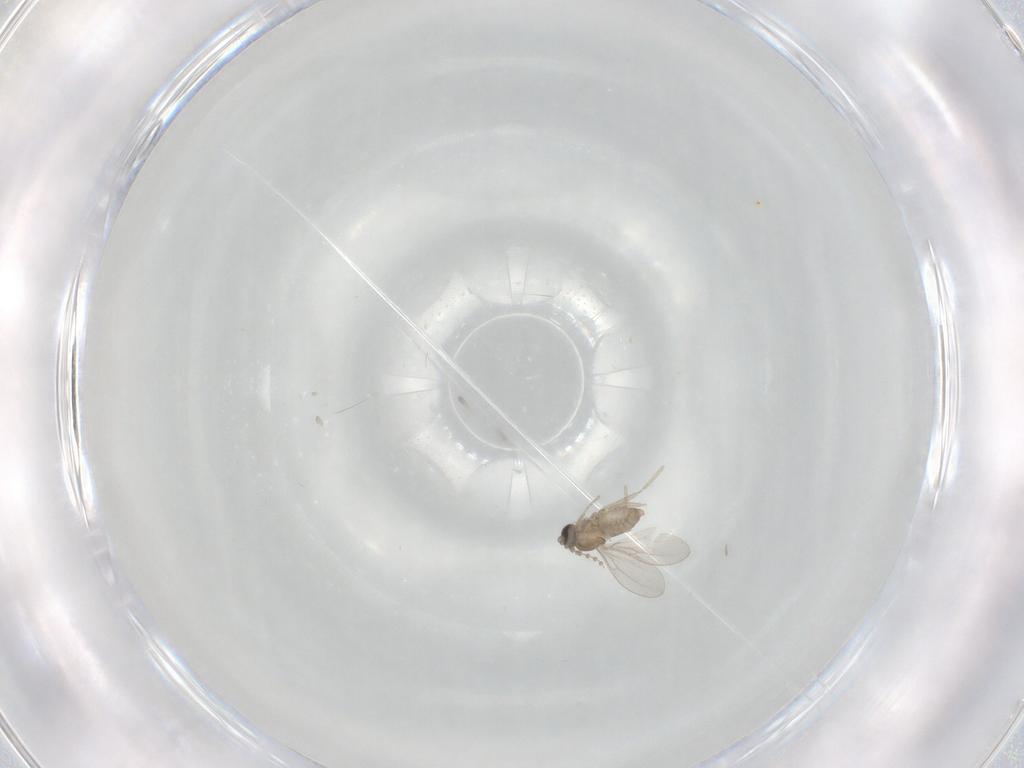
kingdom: Animalia
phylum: Arthropoda
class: Insecta
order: Diptera
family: Cecidomyiidae
